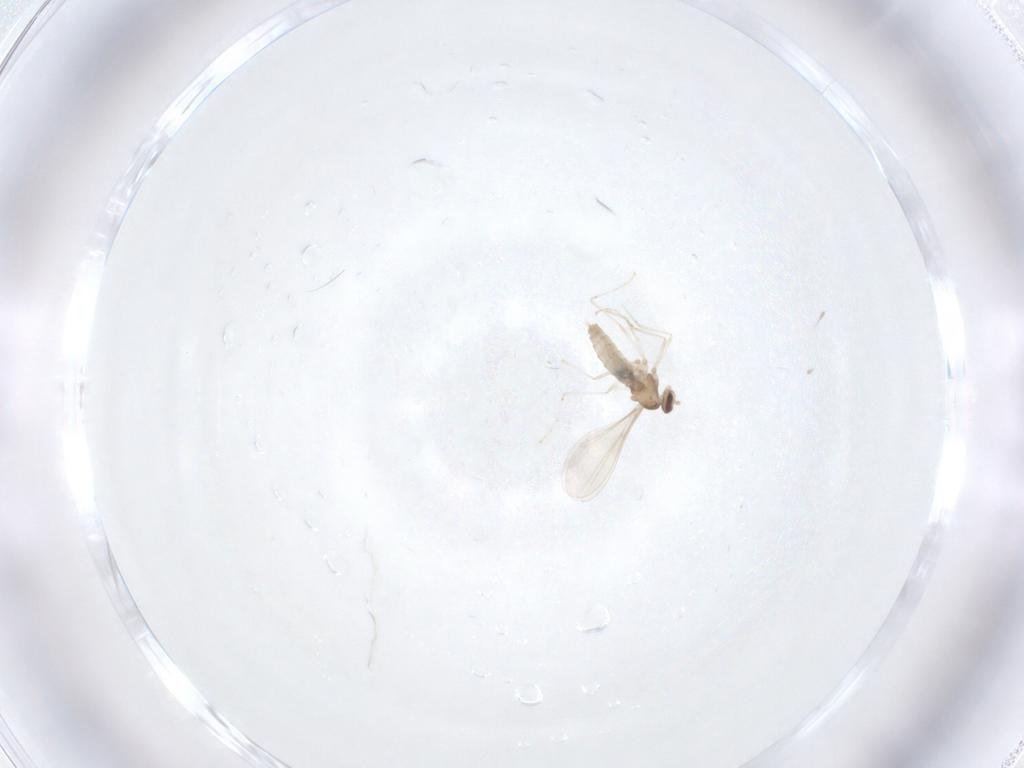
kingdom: Animalia
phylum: Arthropoda
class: Insecta
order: Diptera
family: Cecidomyiidae
